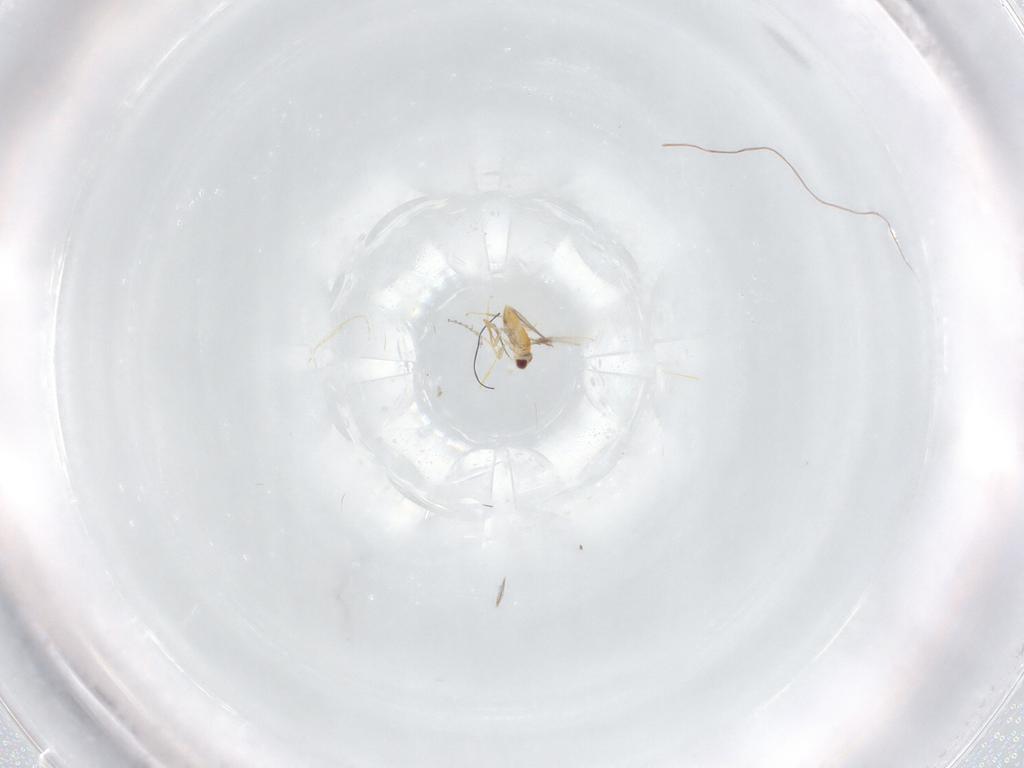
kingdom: Animalia
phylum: Arthropoda
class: Insecta
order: Hymenoptera
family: Mymaridae
